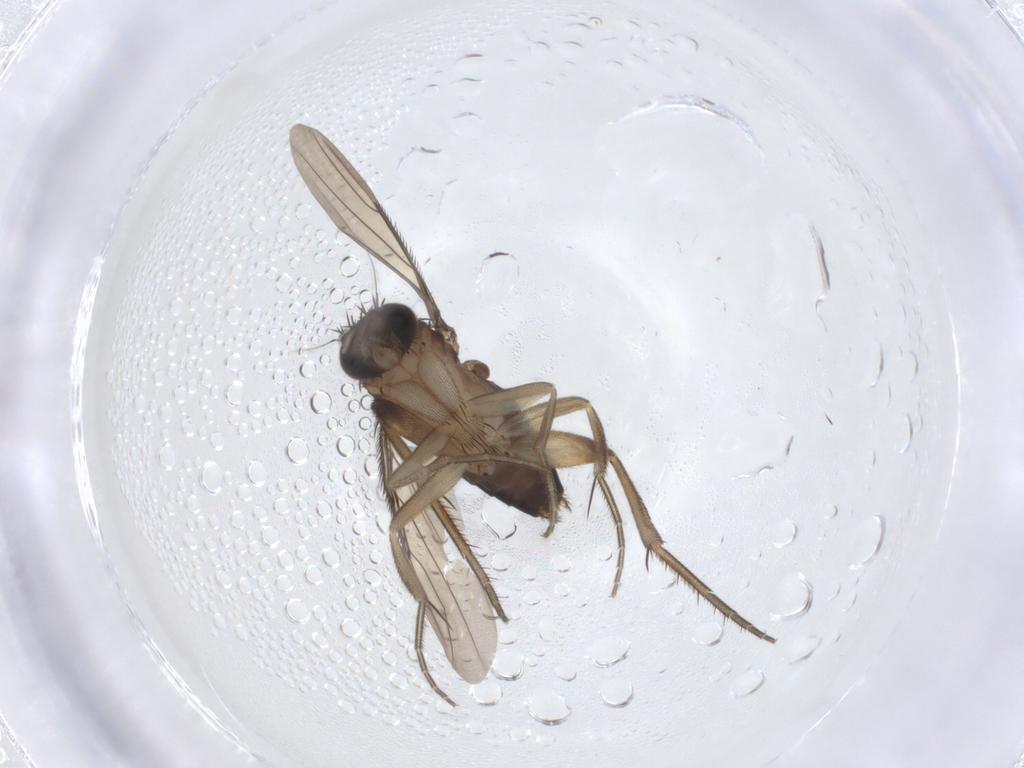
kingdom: Animalia
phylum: Arthropoda
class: Insecta
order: Diptera
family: Phoridae
